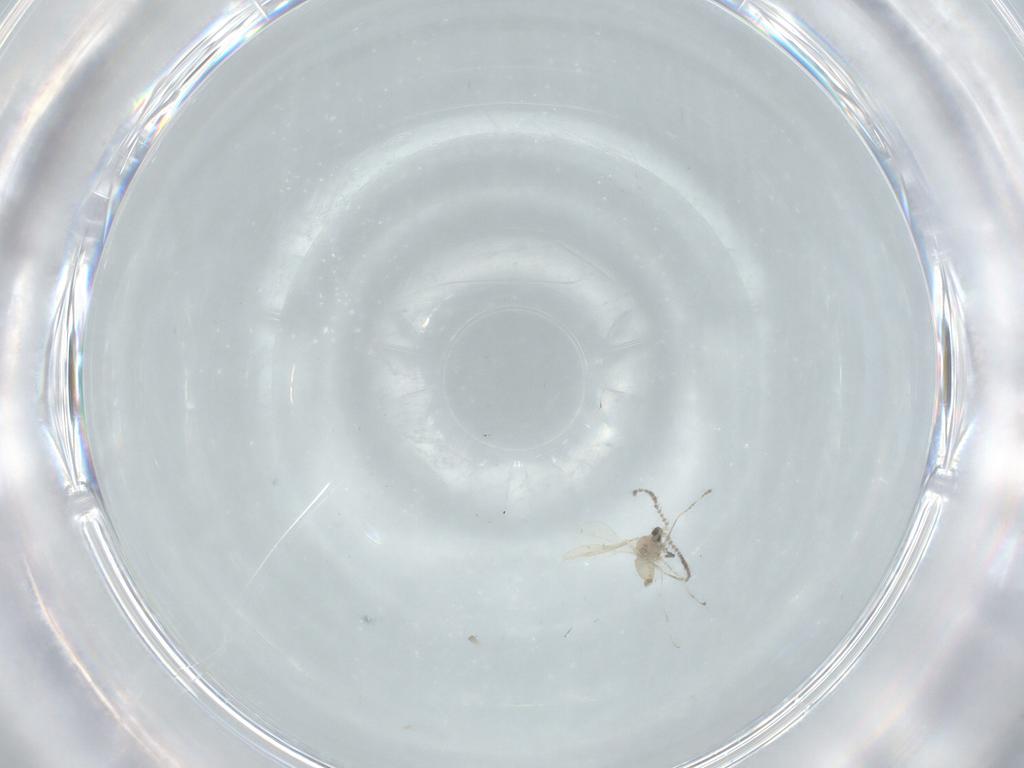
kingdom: Animalia
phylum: Arthropoda
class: Insecta
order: Diptera
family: Cecidomyiidae
